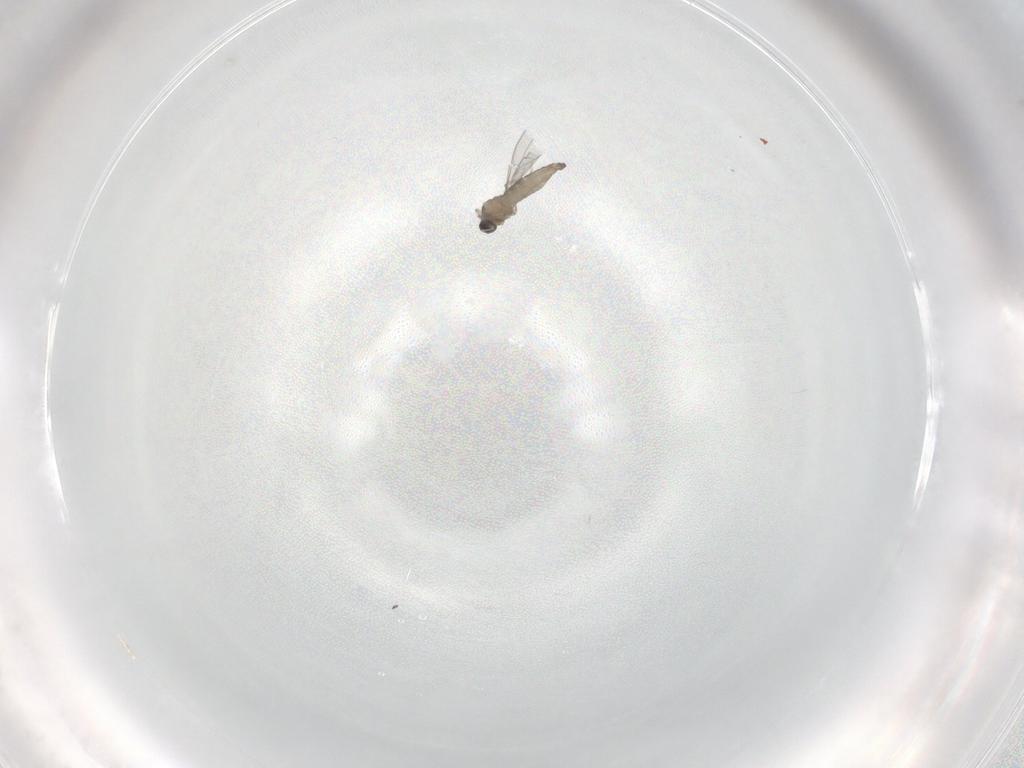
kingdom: Animalia
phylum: Arthropoda
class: Insecta
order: Diptera
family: Cecidomyiidae
